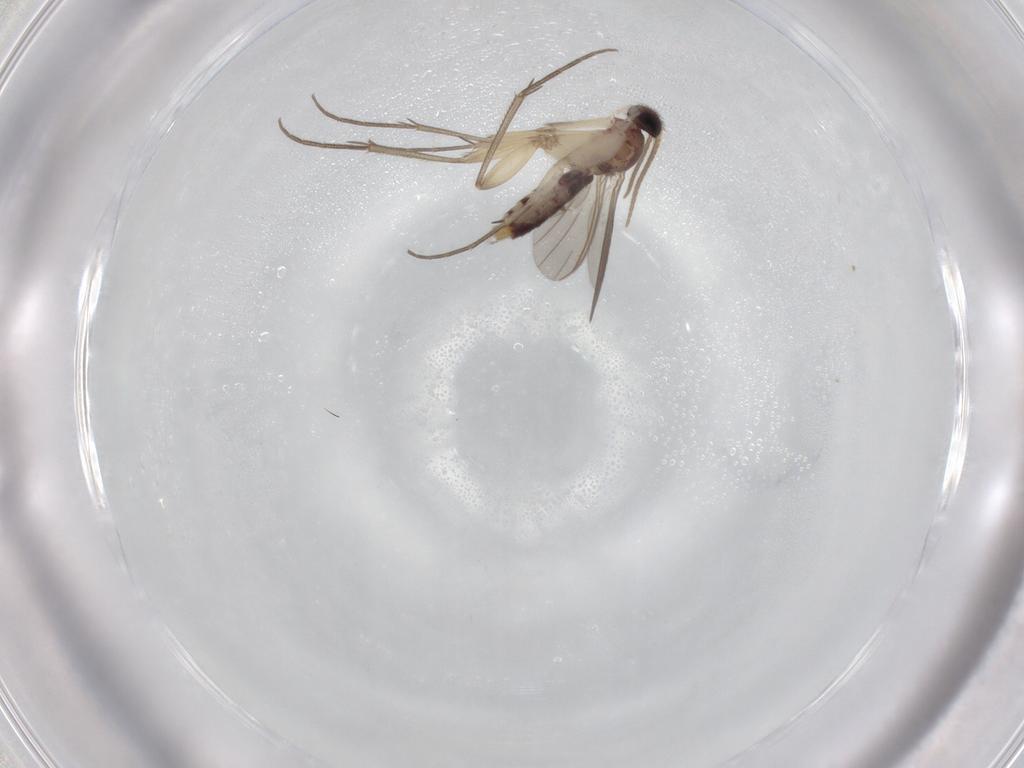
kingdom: Animalia
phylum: Arthropoda
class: Insecta
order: Diptera
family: Mycetophilidae
